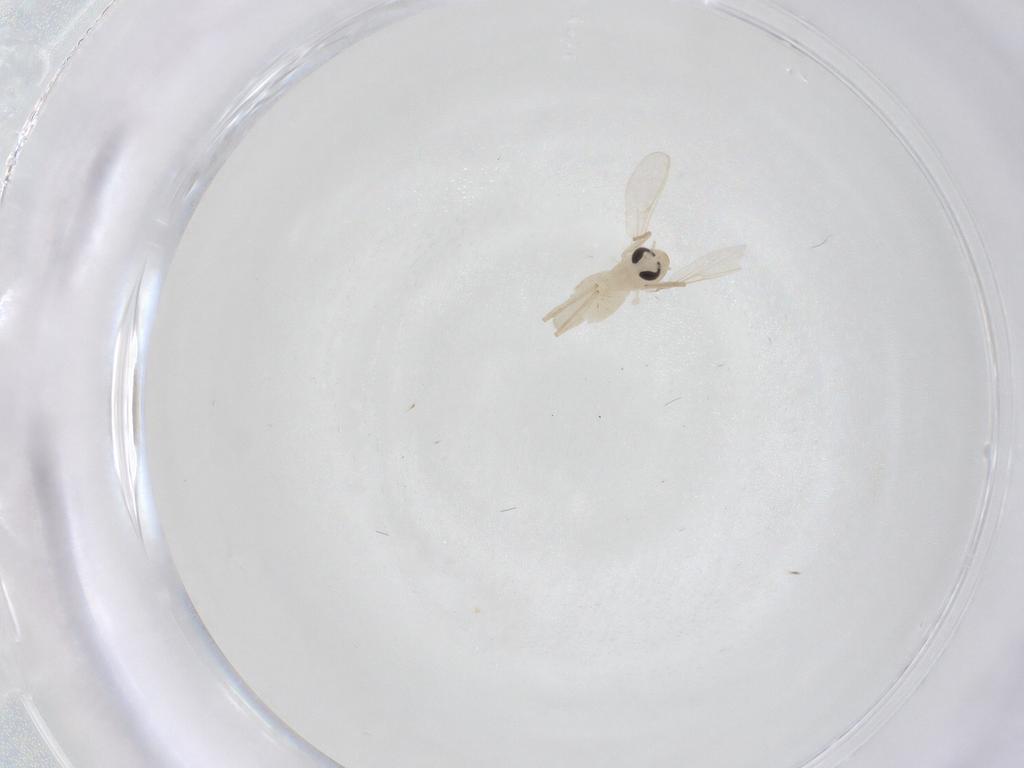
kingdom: Animalia
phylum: Arthropoda
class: Insecta
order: Diptera
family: Chironomidae
